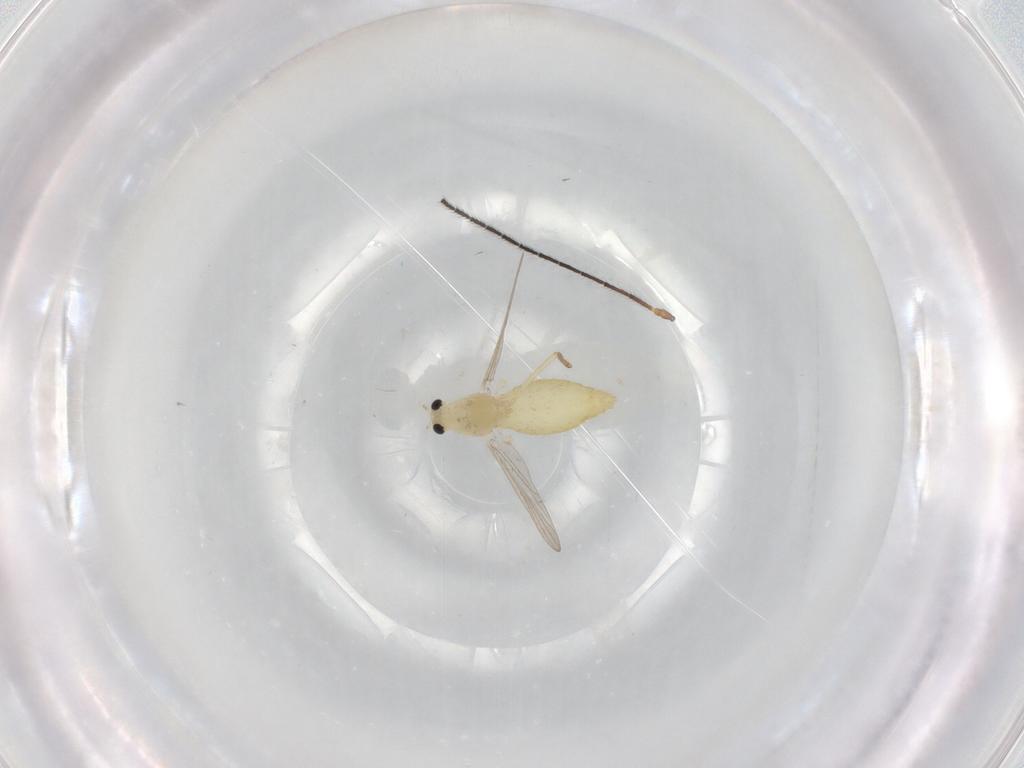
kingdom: Animalia
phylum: Arthropoda
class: Insecta
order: Diptera
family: Chironomidae
